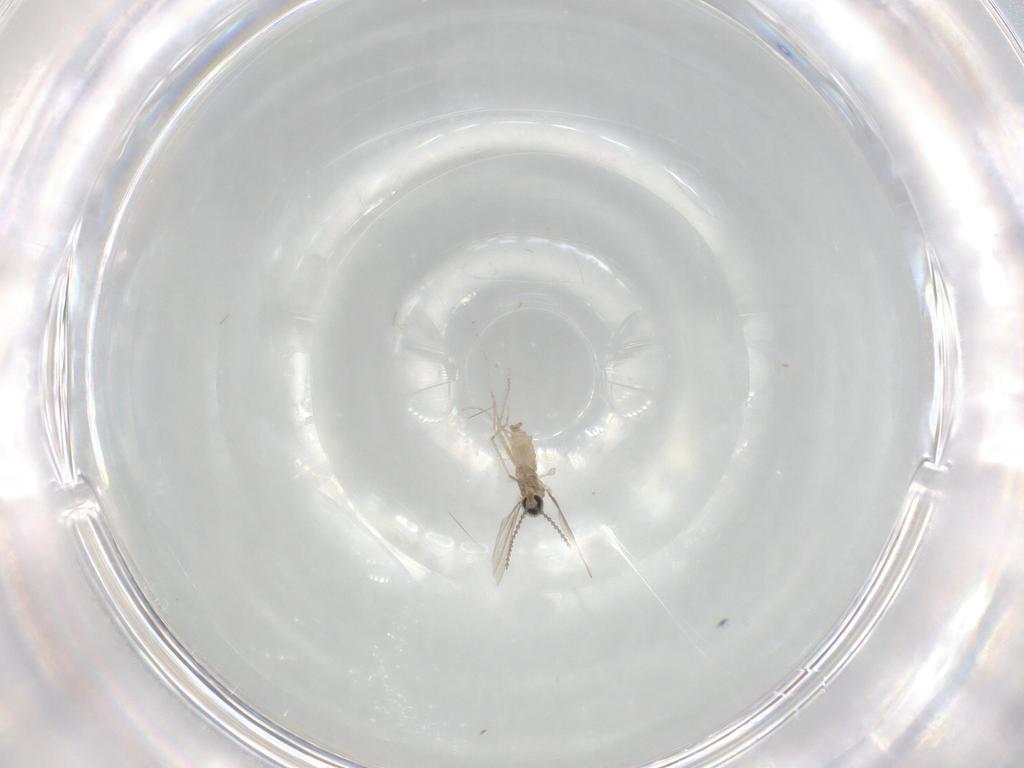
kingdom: Animalia
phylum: Arthropoda
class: Insecta
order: Diptera
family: Cecidomyiidae
